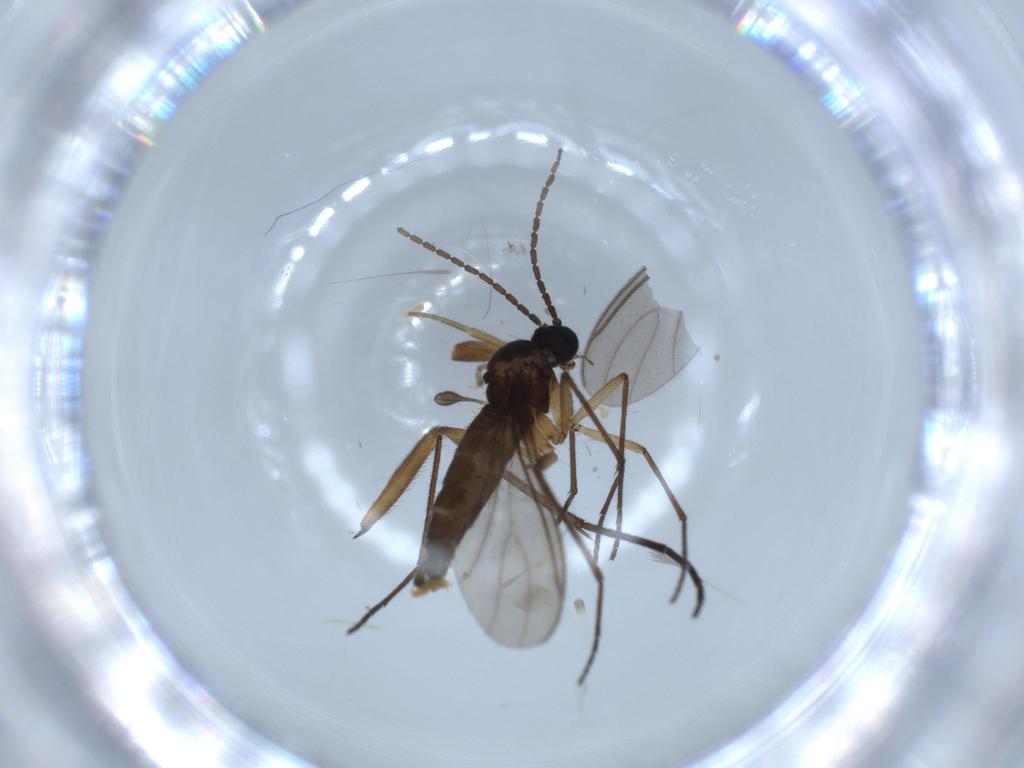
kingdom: Animalia
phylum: Arthropoda
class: Insecta
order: Diptera
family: Sciaridae
